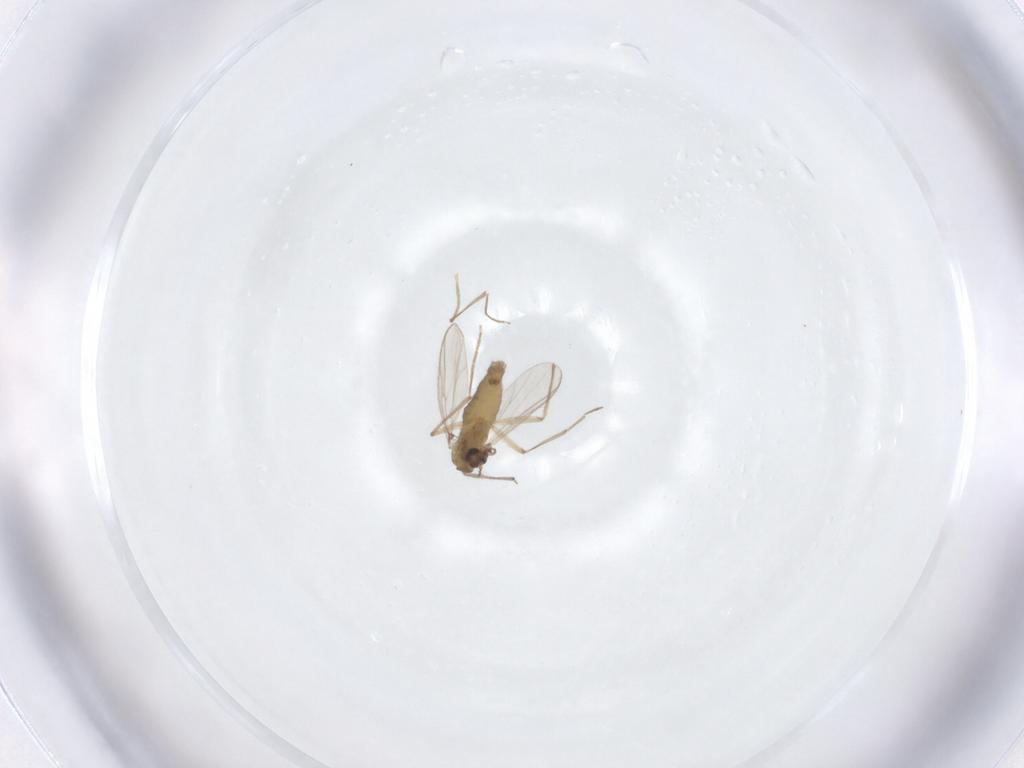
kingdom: Animalia
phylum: Arthropoda
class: Insecta
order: Diptera
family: Chironomidae
